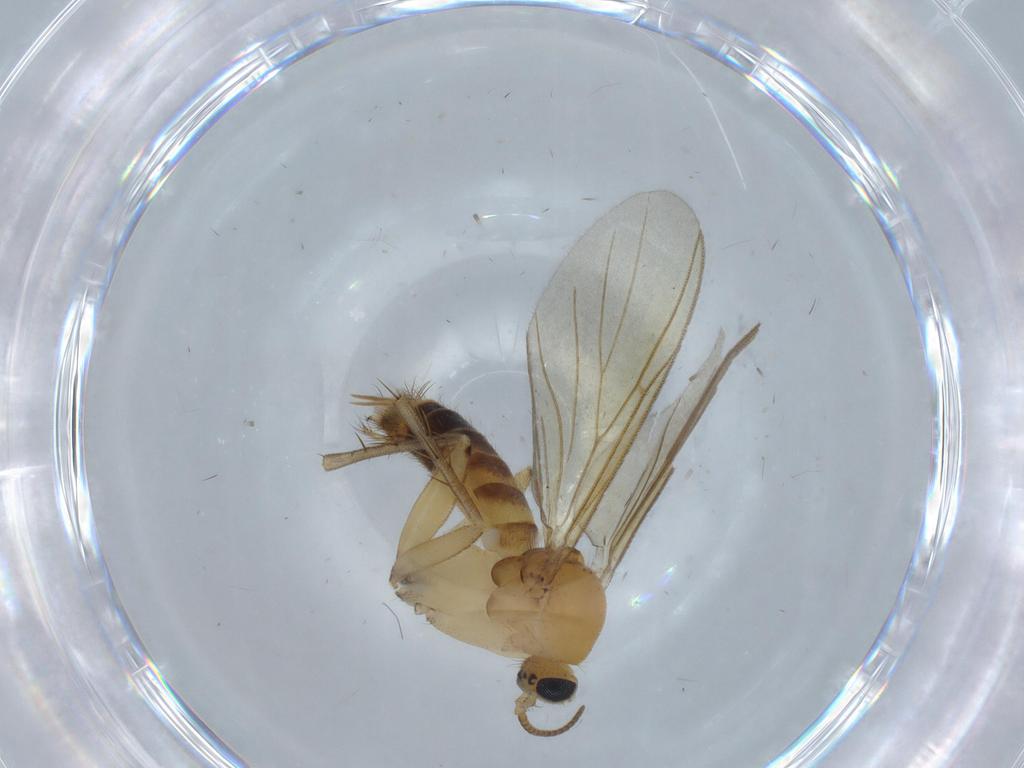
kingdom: Animalia
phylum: Arthropoda
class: Insecta
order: Diptera
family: Mycetophilidae
